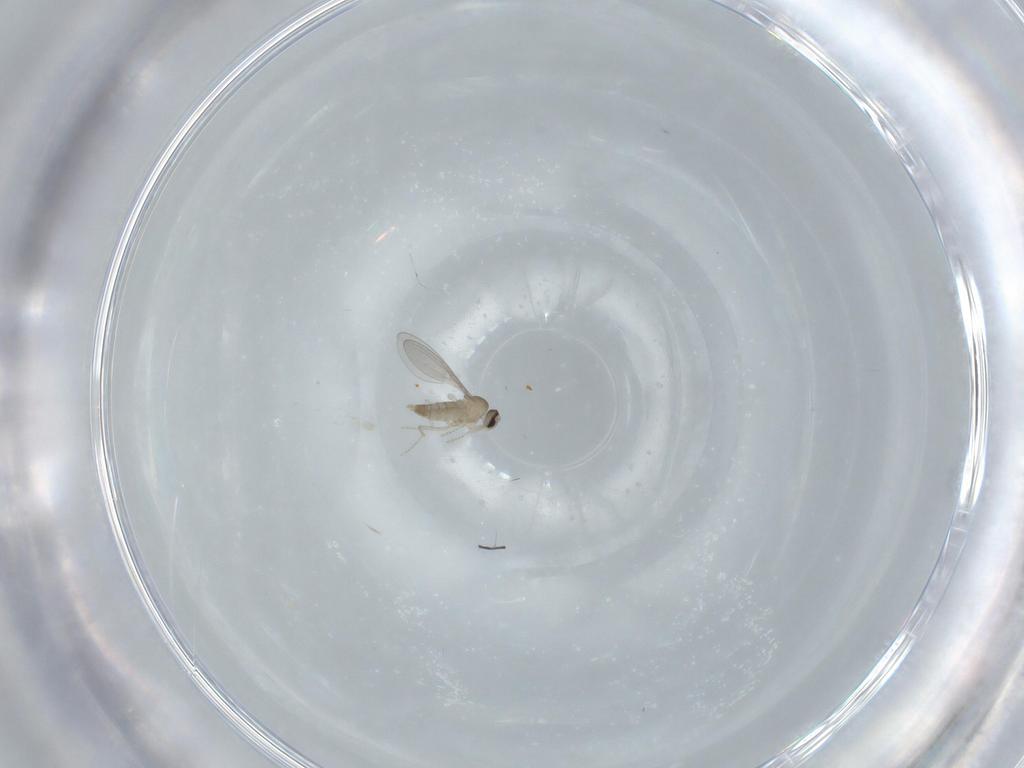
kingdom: Animalia
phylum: Arthropoda
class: Insecta
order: Diptera
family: Cecidomyiidae
